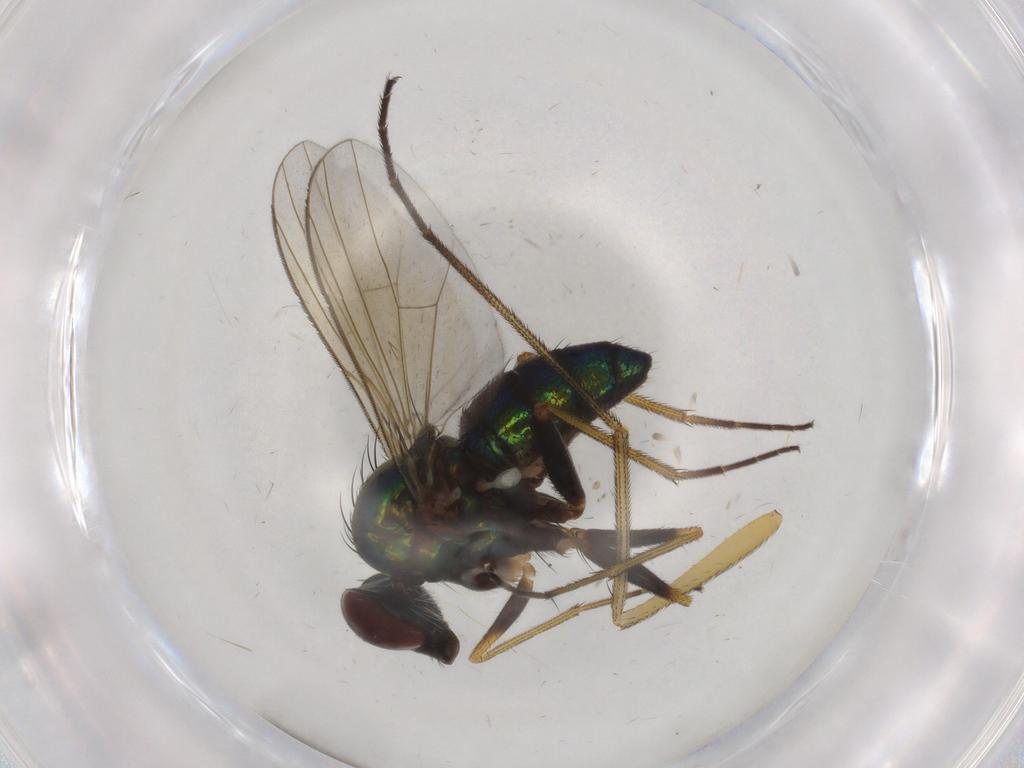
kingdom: Animalia
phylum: Arthropoda
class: Insecta
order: Diptera
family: Dolichopodidae
